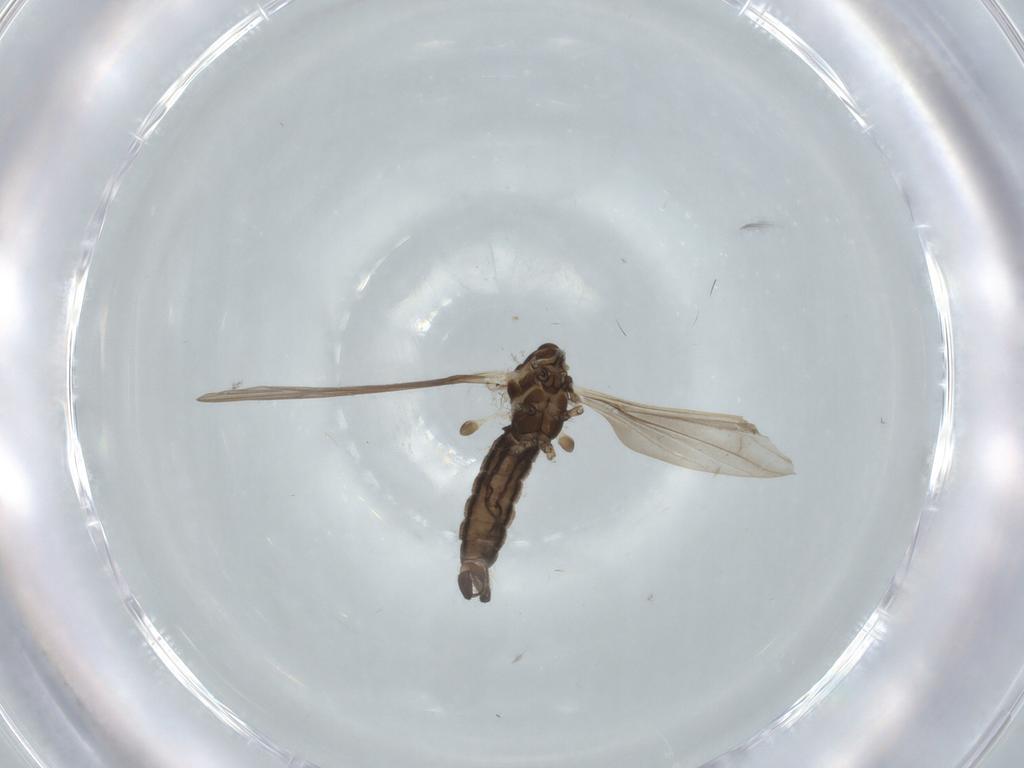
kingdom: Animalia
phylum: Arthropoda
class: Insecta
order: Diptera
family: Limoniidae
